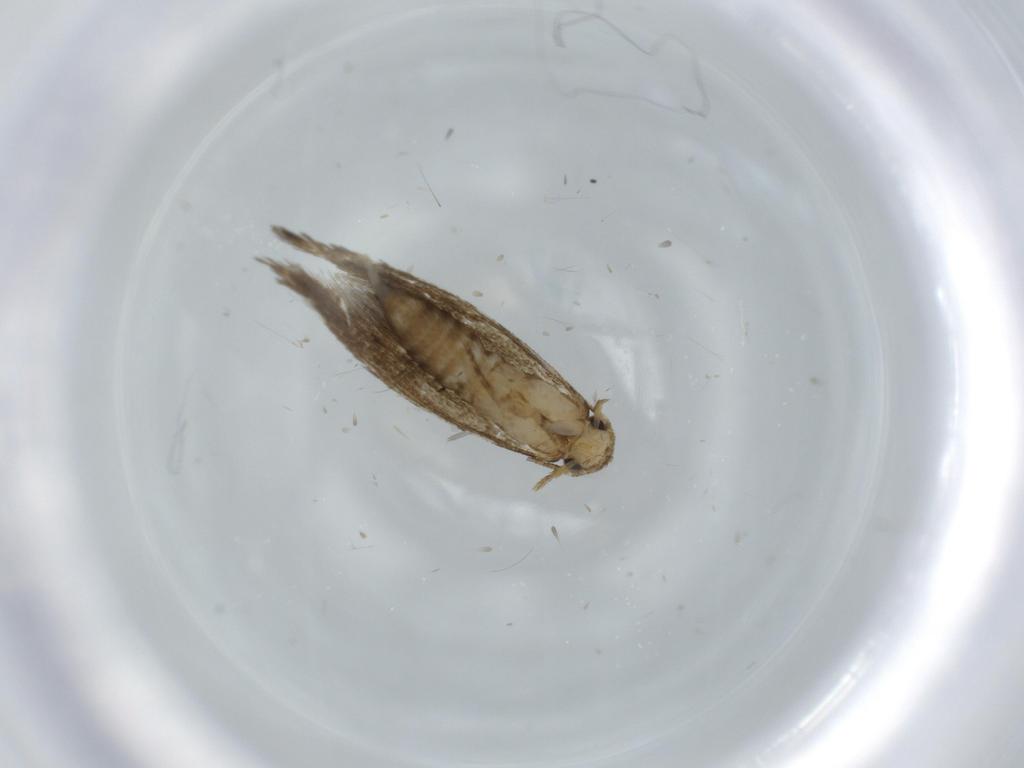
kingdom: Animalia
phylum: Arthropoda
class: Insecta
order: Lepidoptera
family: Tineidae
